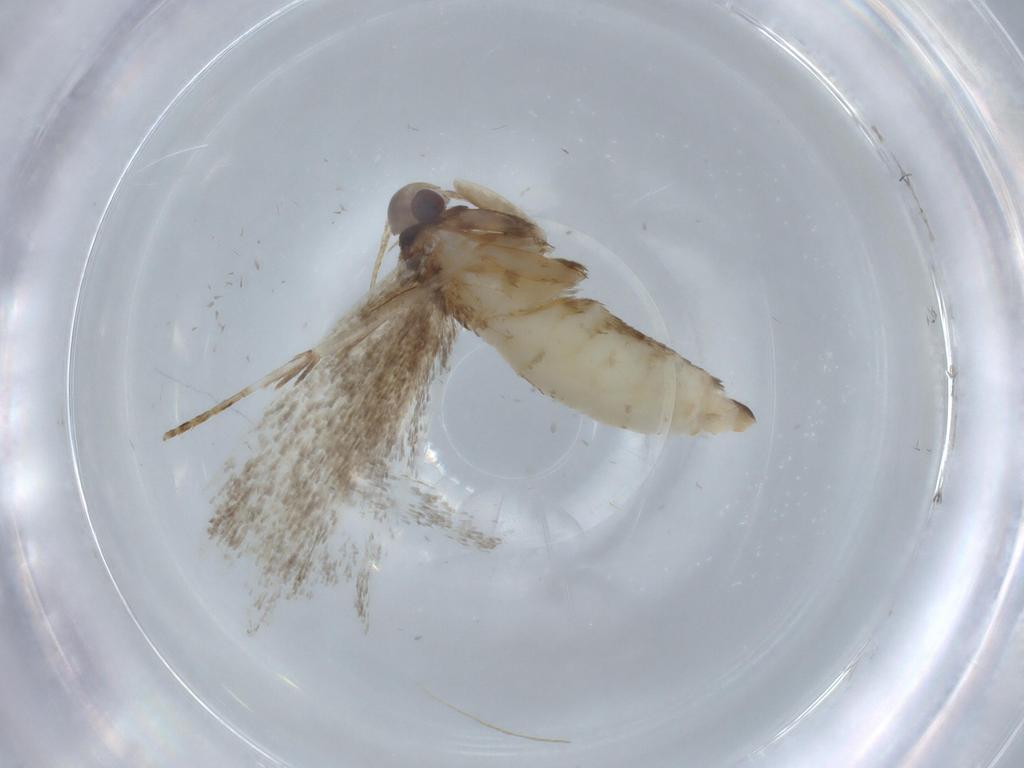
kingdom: Animalia
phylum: Arthropoda
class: Insecta
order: Lepidoptera
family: Gelechiidae
